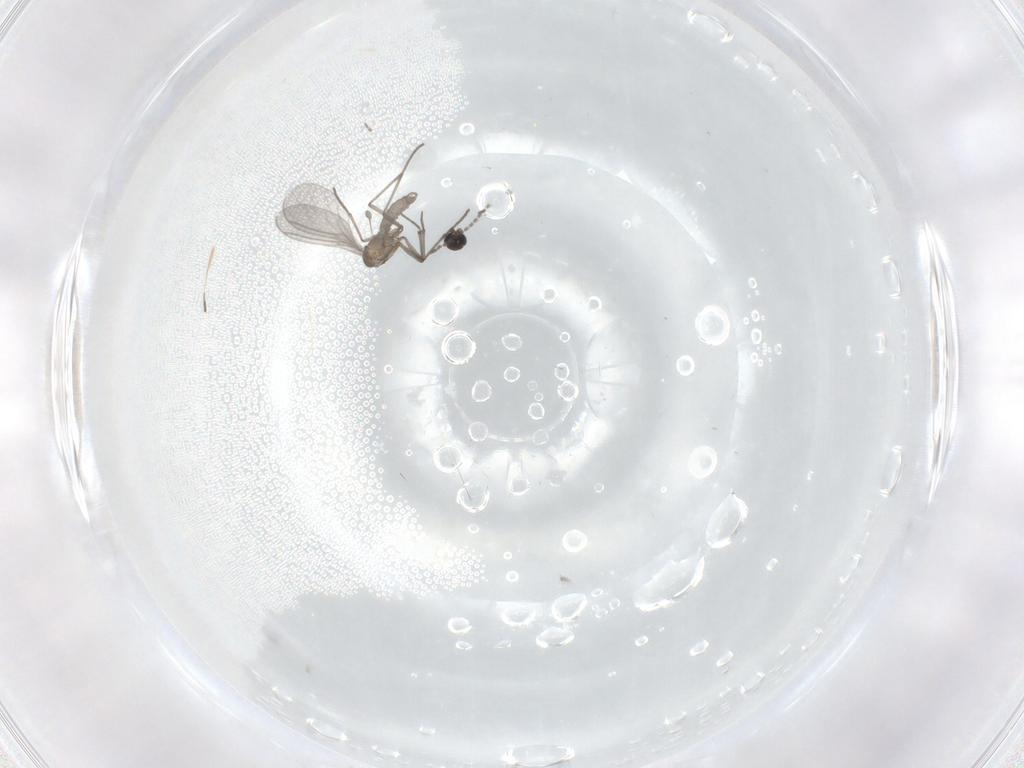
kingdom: Animalia
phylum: Arthropoda
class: Insecta
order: Diptera
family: Sciaridae
